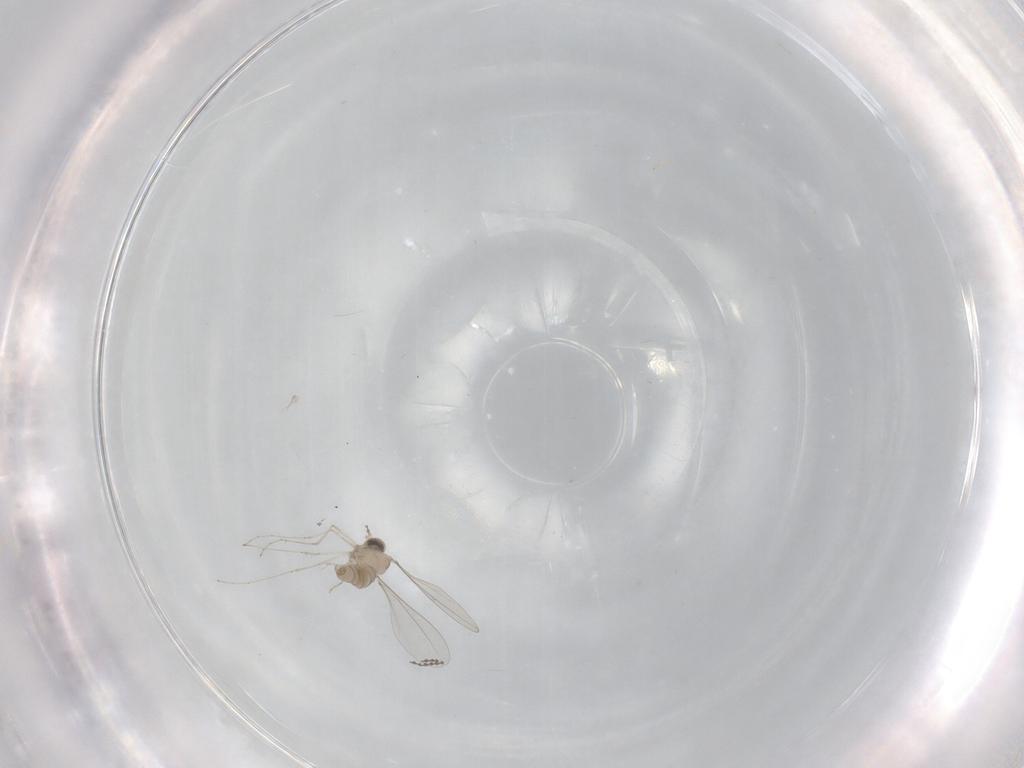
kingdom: Animalia
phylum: Arthropoda
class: Insecta
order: Diptera
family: Cecidomyiidae
